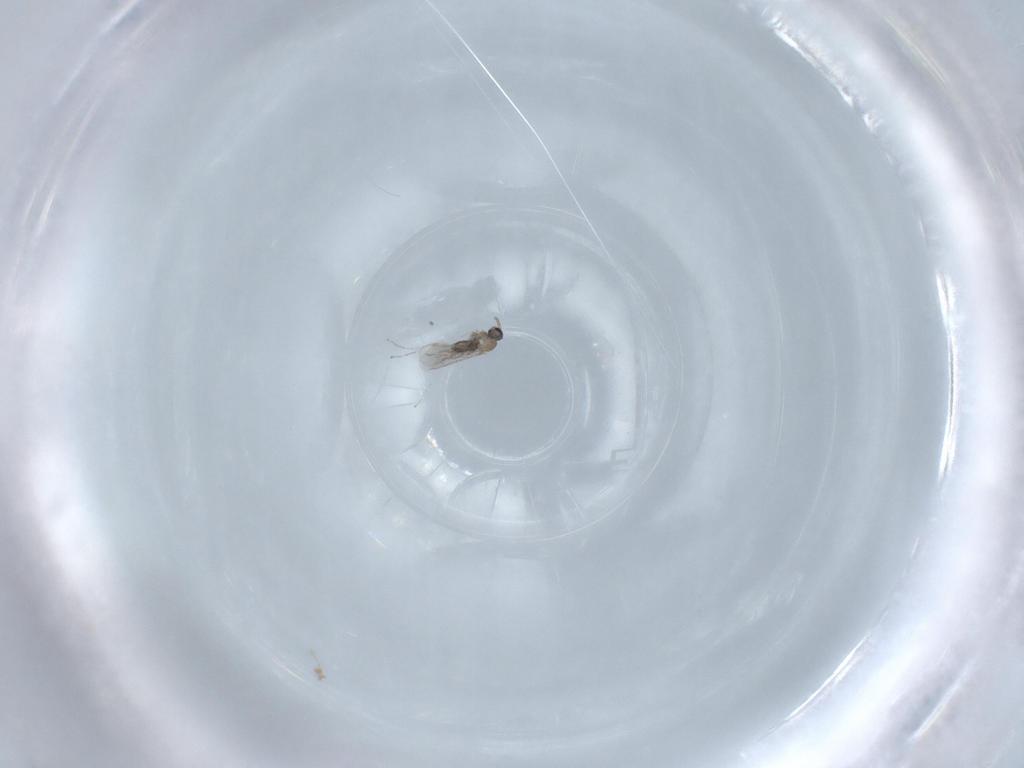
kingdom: Animalia
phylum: Arthropoda
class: Insecta
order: Diptera
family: Cecidomyiidae
